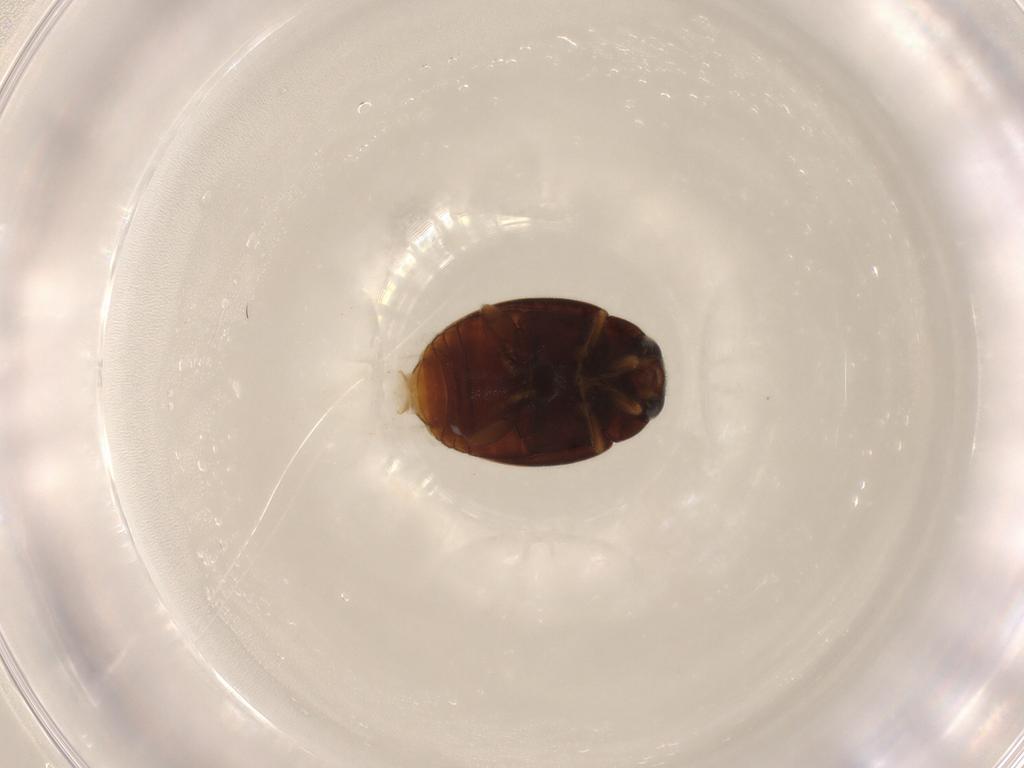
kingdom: Animalia
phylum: Arthropoda
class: Insecta
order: Coleoptera
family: Coccinellidae
